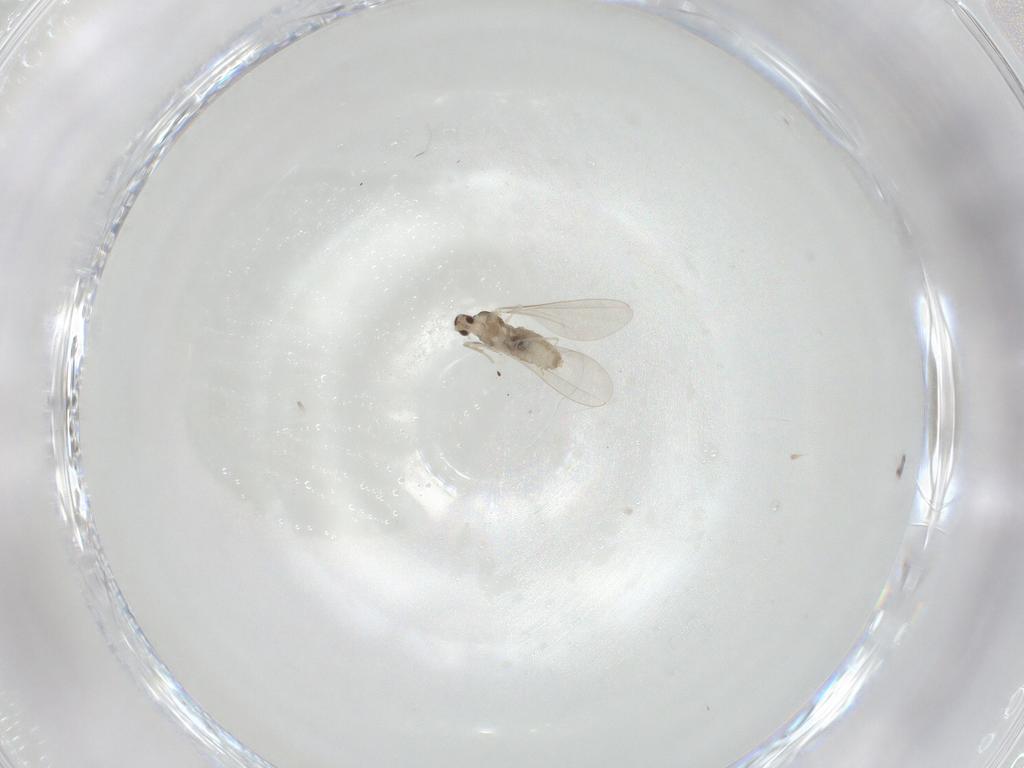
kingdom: Animalia
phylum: Arthropoda
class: Insecta
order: Diptera
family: Cecidomyiidae
